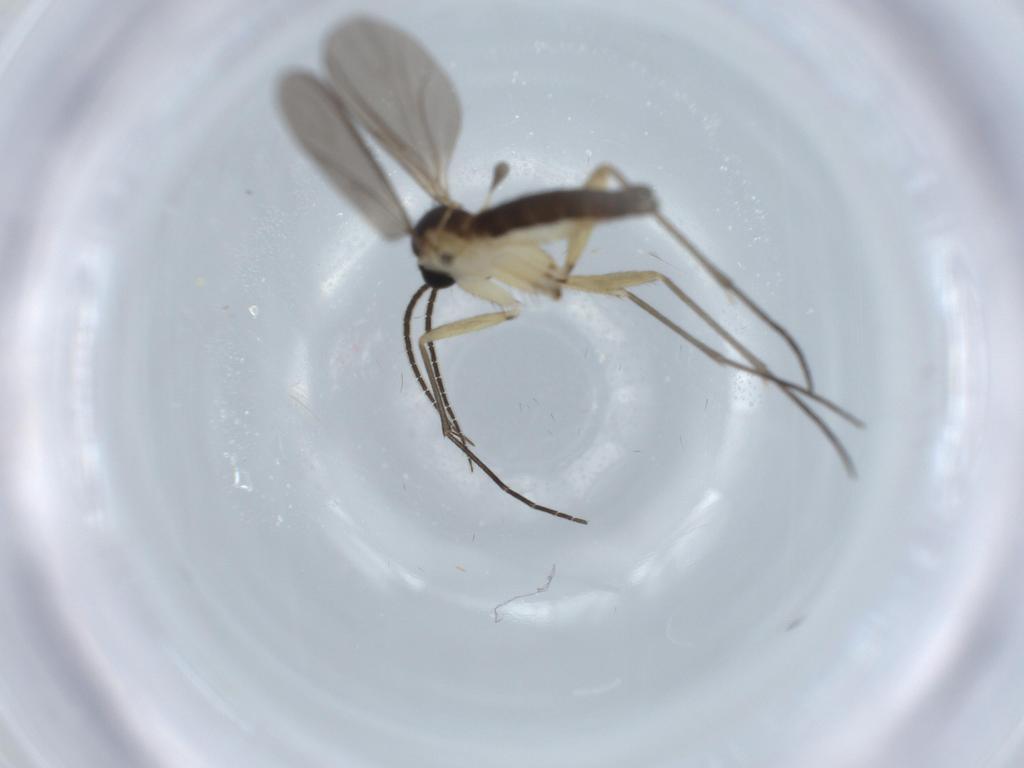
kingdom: Animalia
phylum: Arthropoda
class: Insecta
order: Diptera
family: Sciaridae
